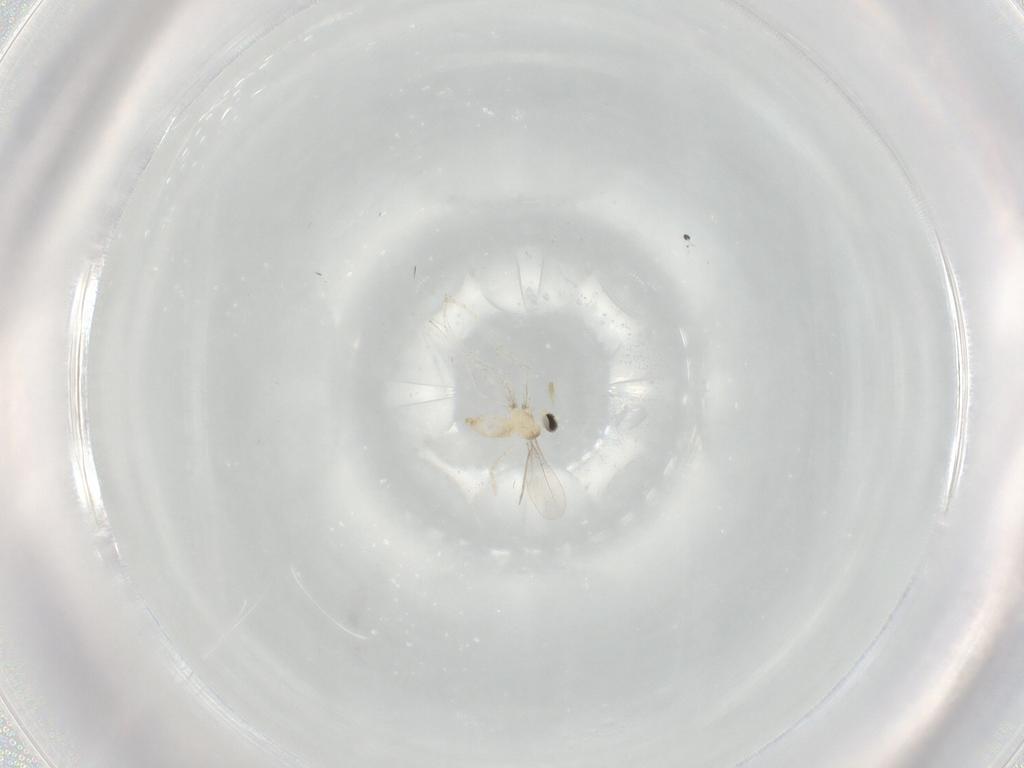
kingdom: Animalia
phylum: Arthropoda
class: Insecta
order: Diptera
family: Cecidomyiidae
